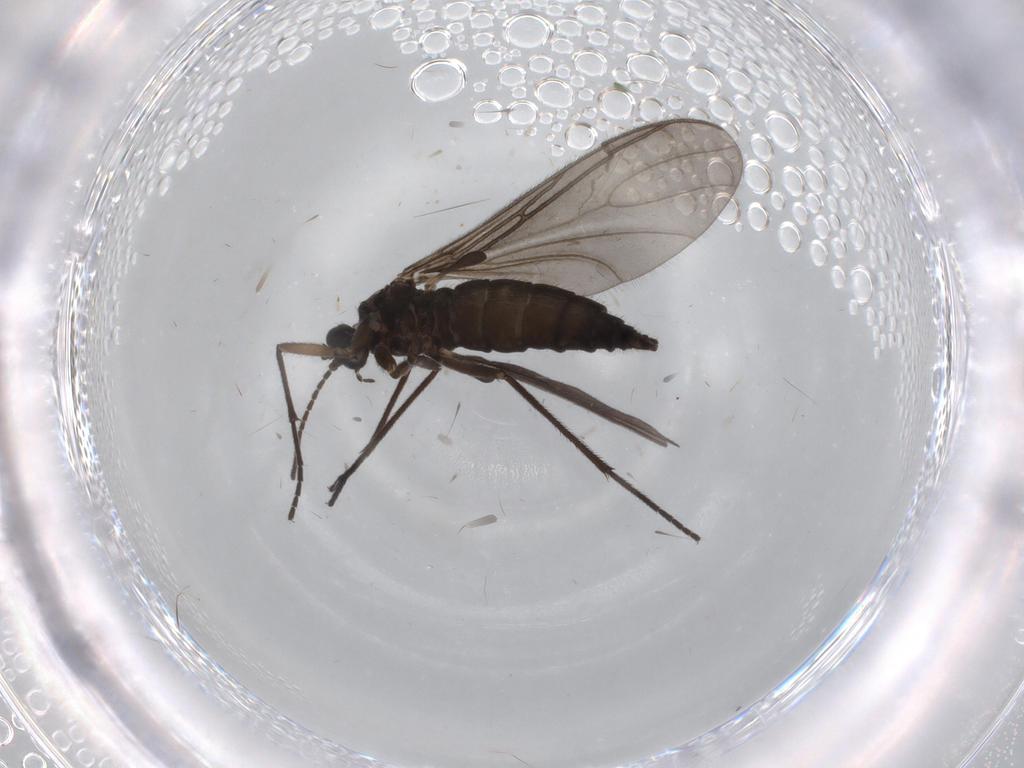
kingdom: Animalia
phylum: Arthropoda
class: Insecta
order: Diptera
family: Sciaridae
